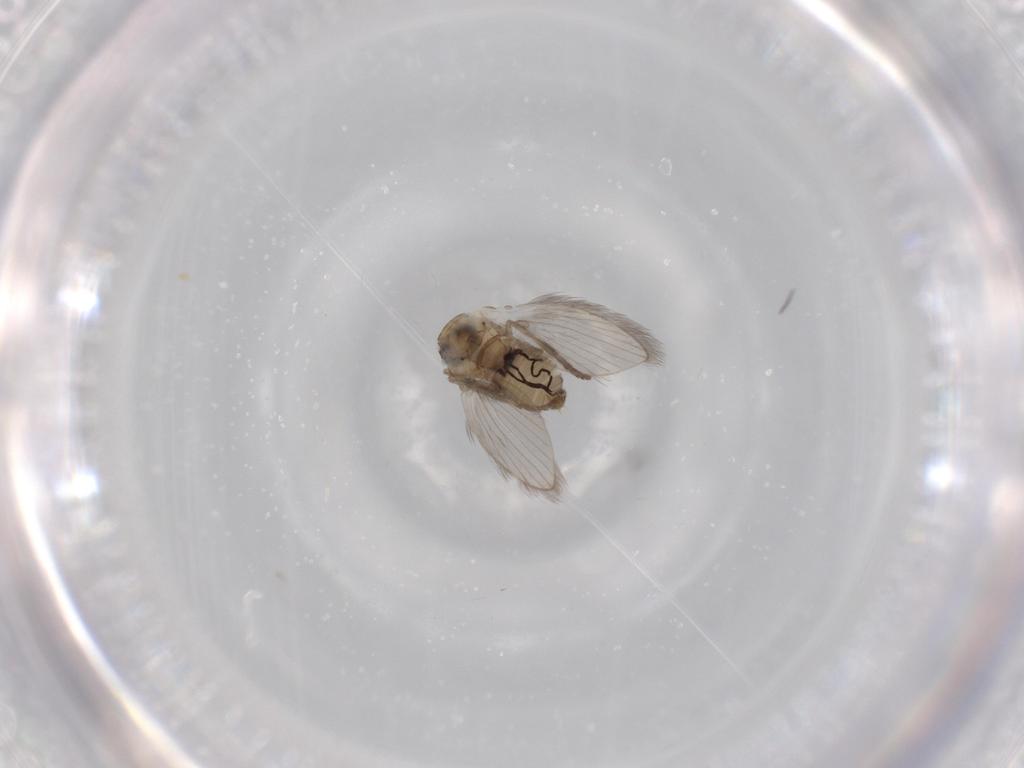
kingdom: Animalia
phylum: Arthropoda
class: Insecta
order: Diptera
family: Psychodidae
